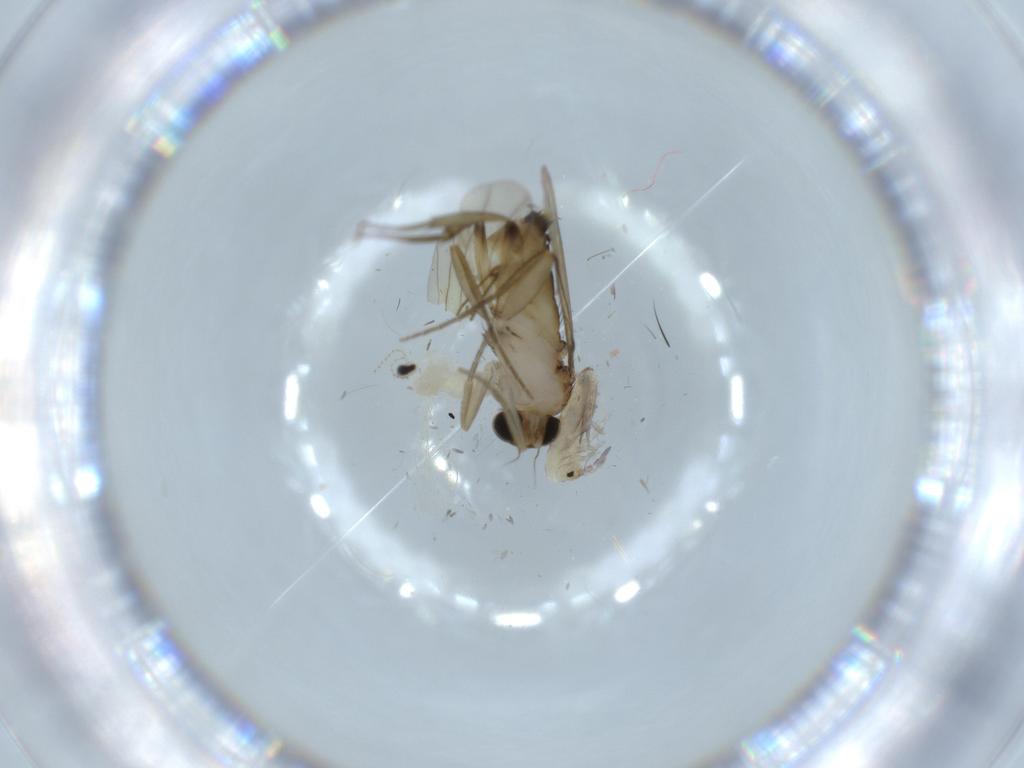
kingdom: Animalia
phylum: Arthropoda
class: Insecta
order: Diptera
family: Phoridae
